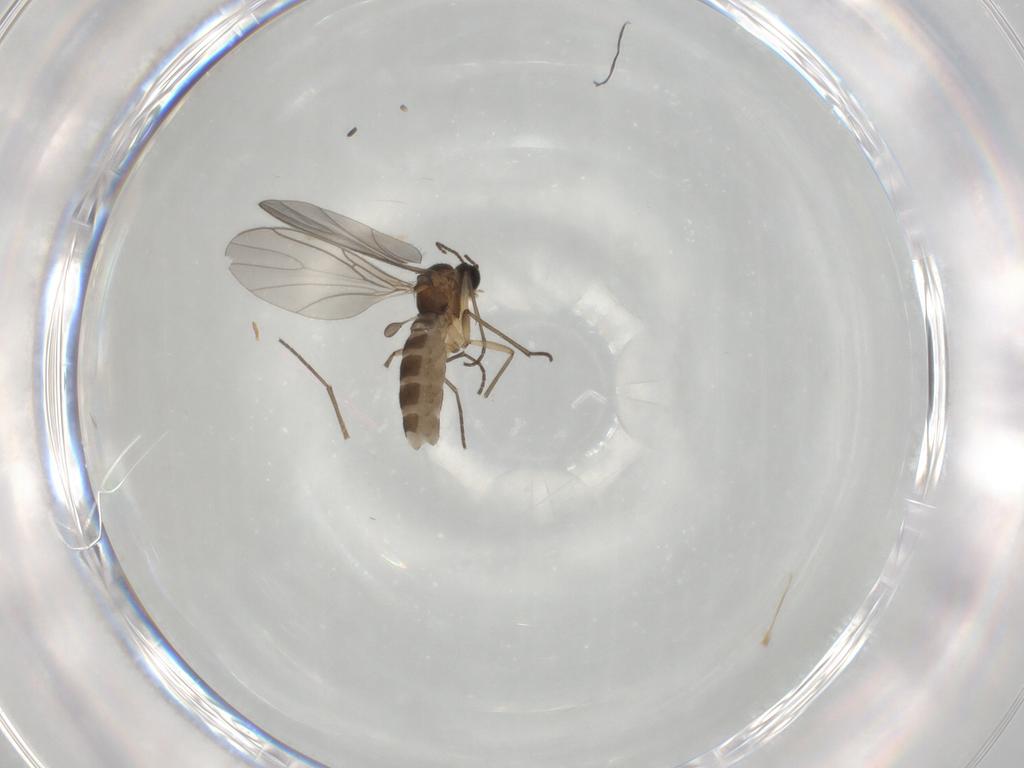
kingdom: Animalia
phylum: Arthropoda
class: Insecta
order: Diptera
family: Sciaridae
